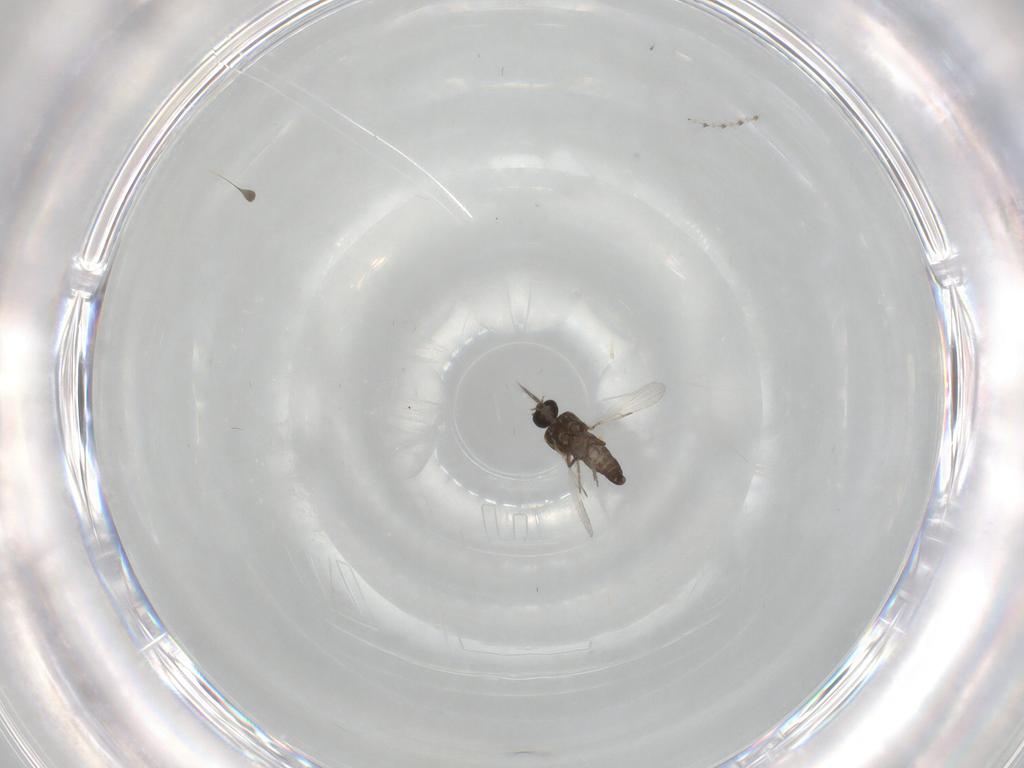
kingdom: Animalia
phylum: Arthropoda
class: Insecta
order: Diptera
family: Ceratopogonidae
